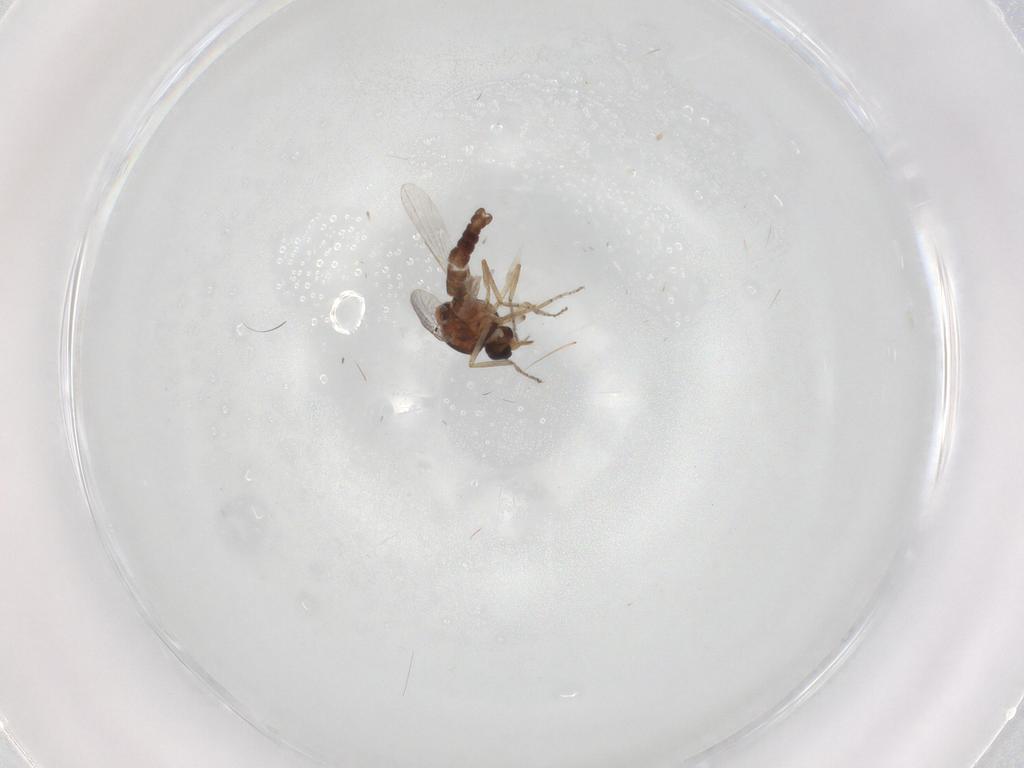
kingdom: Animalia
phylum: Arthropoda
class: Insecta
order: Diptera
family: Ceratopogonidae
